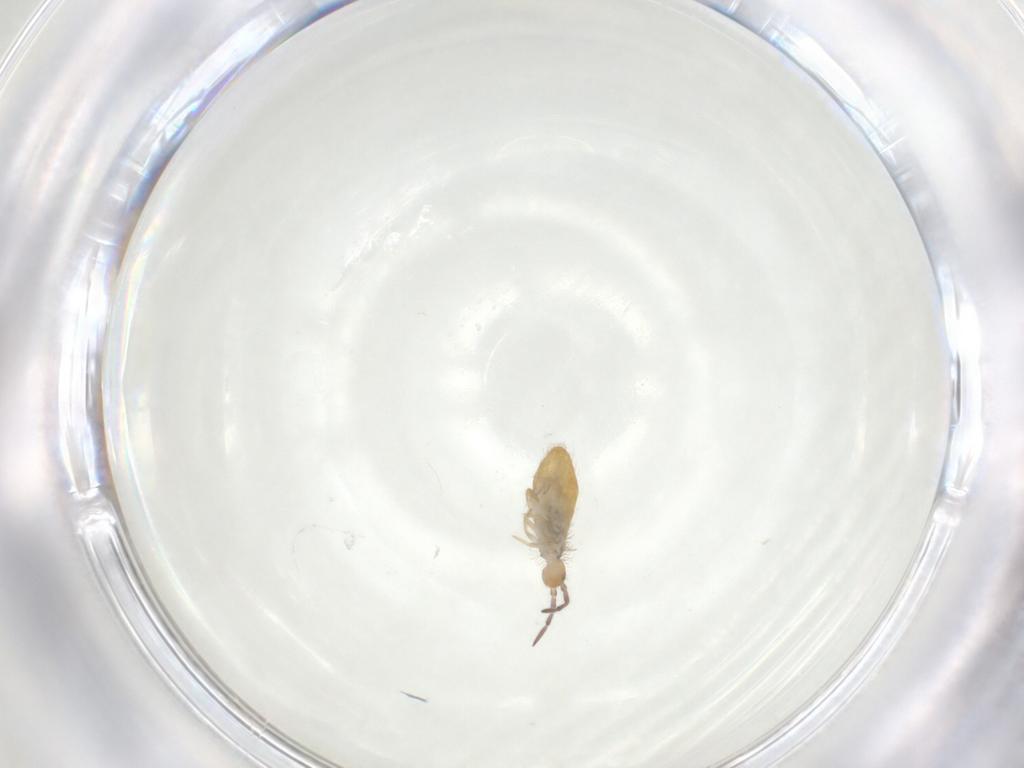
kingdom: Animalia
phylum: Arthropoda
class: Collembola
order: Entomobryomorpha
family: Entomobryidae
